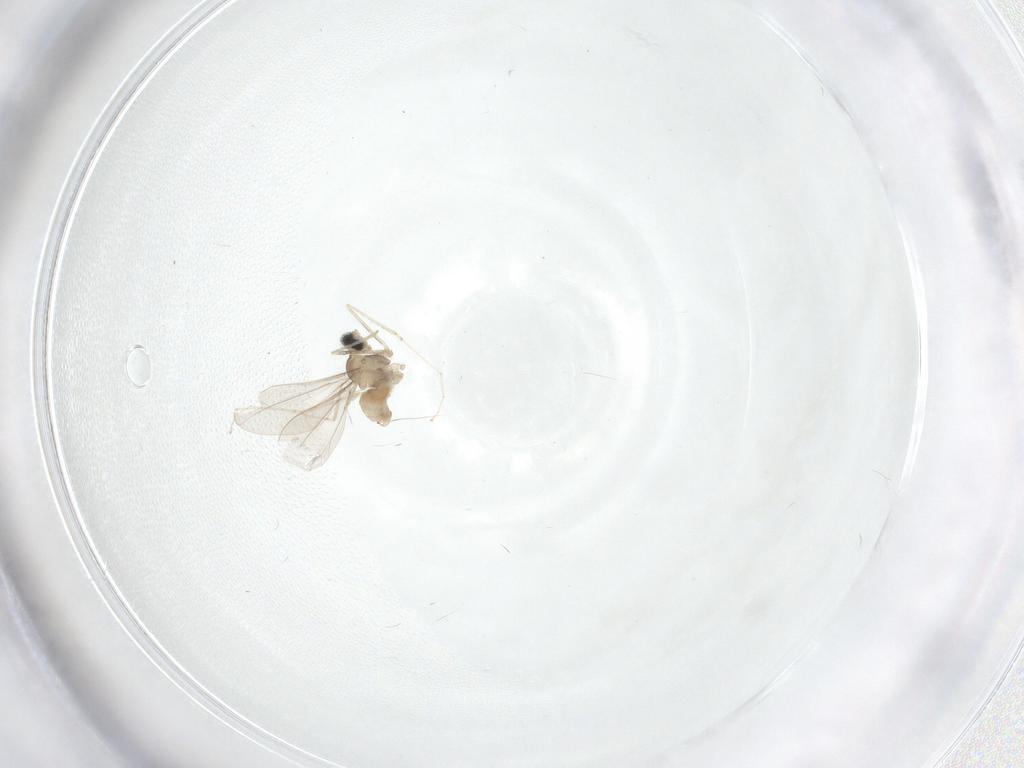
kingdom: Animalia
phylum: Arthropoda
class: Insecta
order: Diptera
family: Cecidomyiidae
